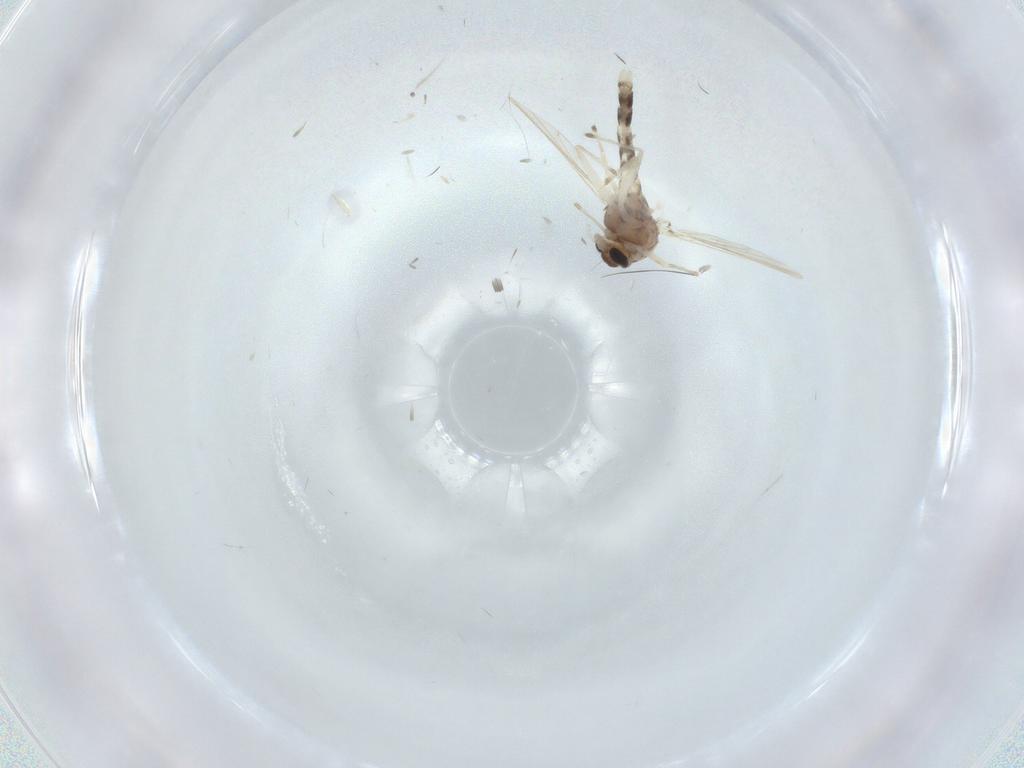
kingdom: Animalia
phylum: Arthropoda
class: Insecta
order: Diptera
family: Chironomidae
